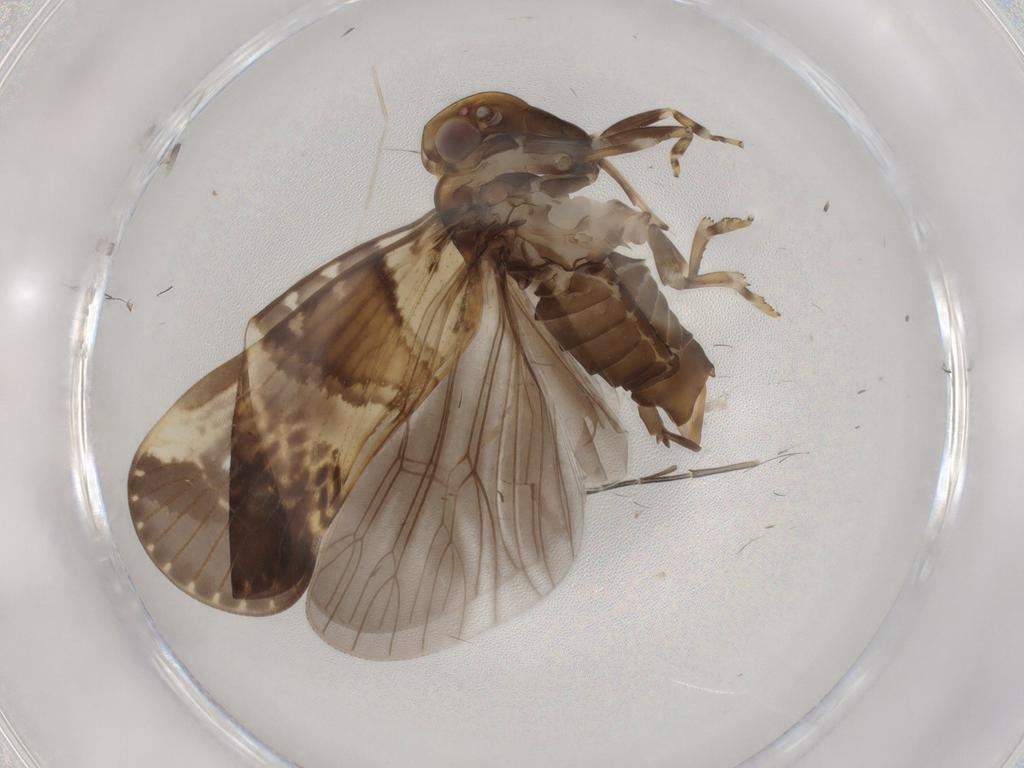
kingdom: Animalia
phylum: Arthropoda
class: Insecta
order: Hemiptera
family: Cixiidae
